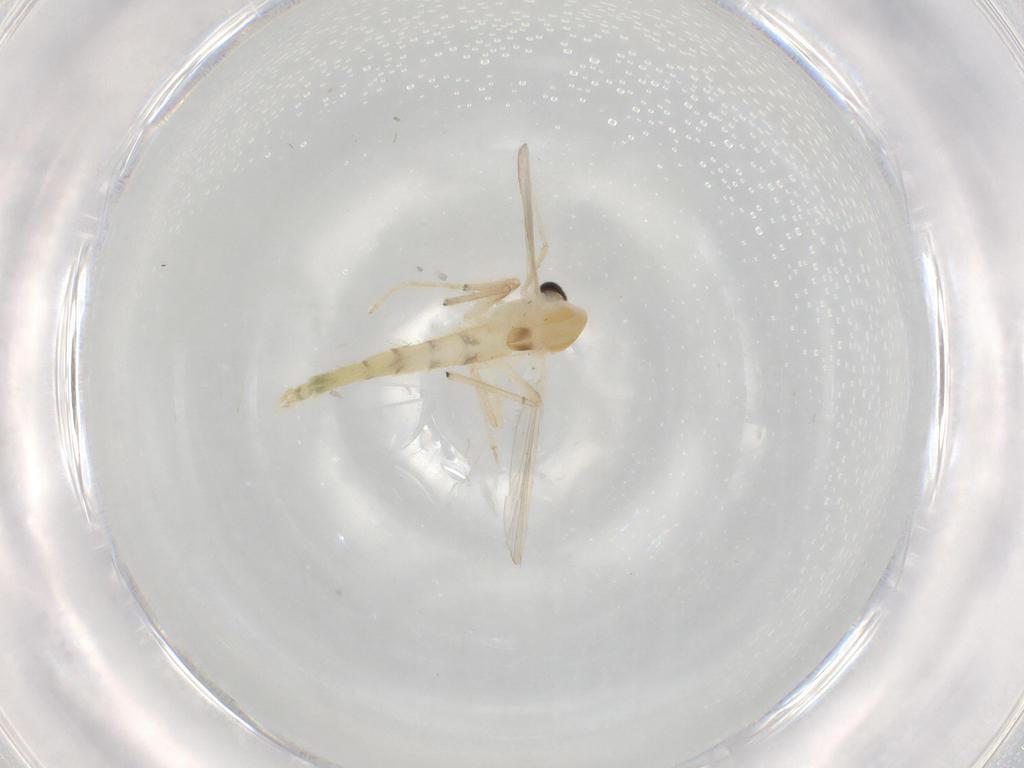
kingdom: Animalia
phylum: Arthropoda
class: Insecta
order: Diptera
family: Chironomidae
